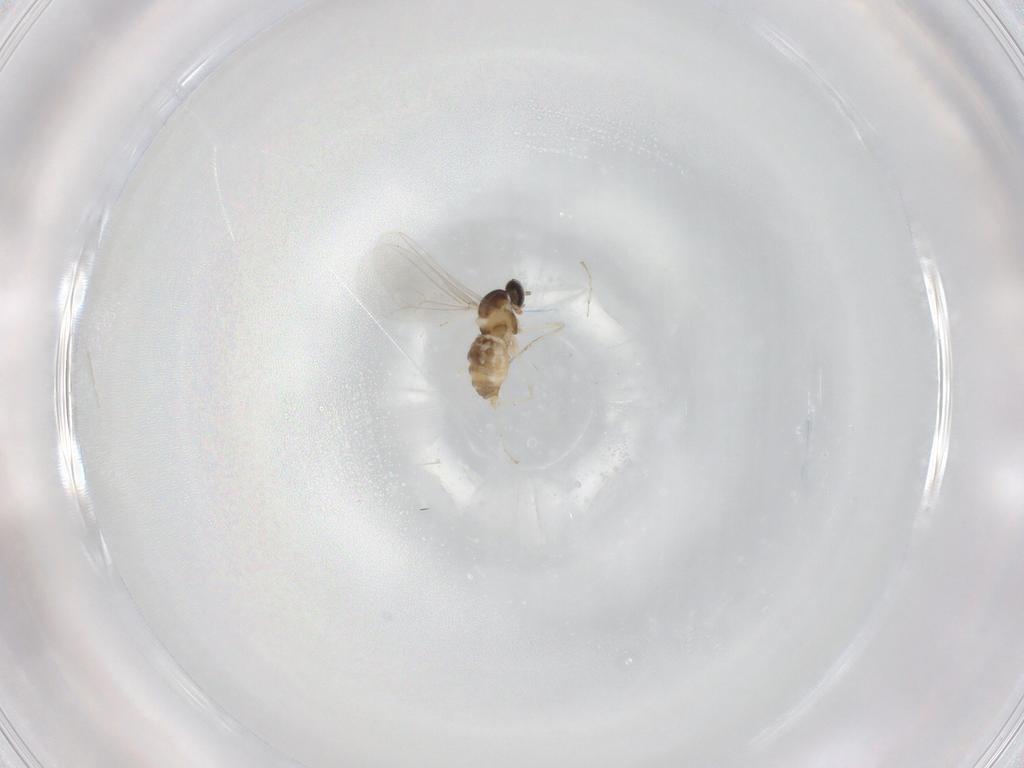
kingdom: Animalia
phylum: Arthropoda
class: Insecta
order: Diptera
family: Cecidomyiidae
